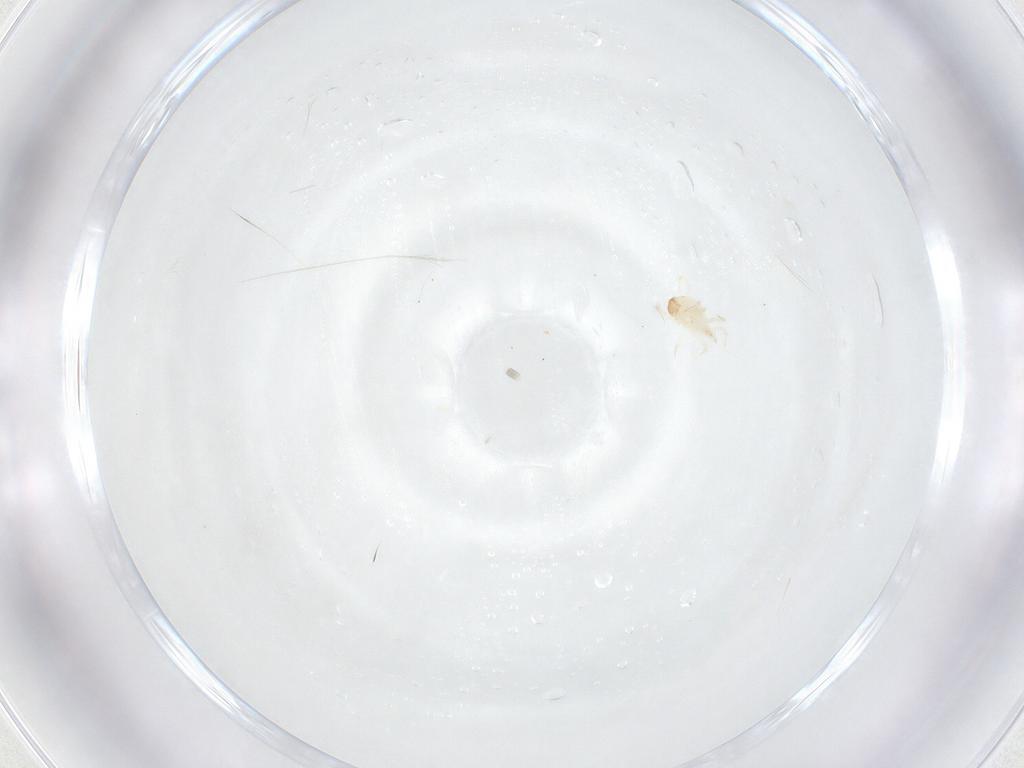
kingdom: Animalia
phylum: Arthropoda
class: Arachnida
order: Mesostigmata
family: Phytoseiidae
